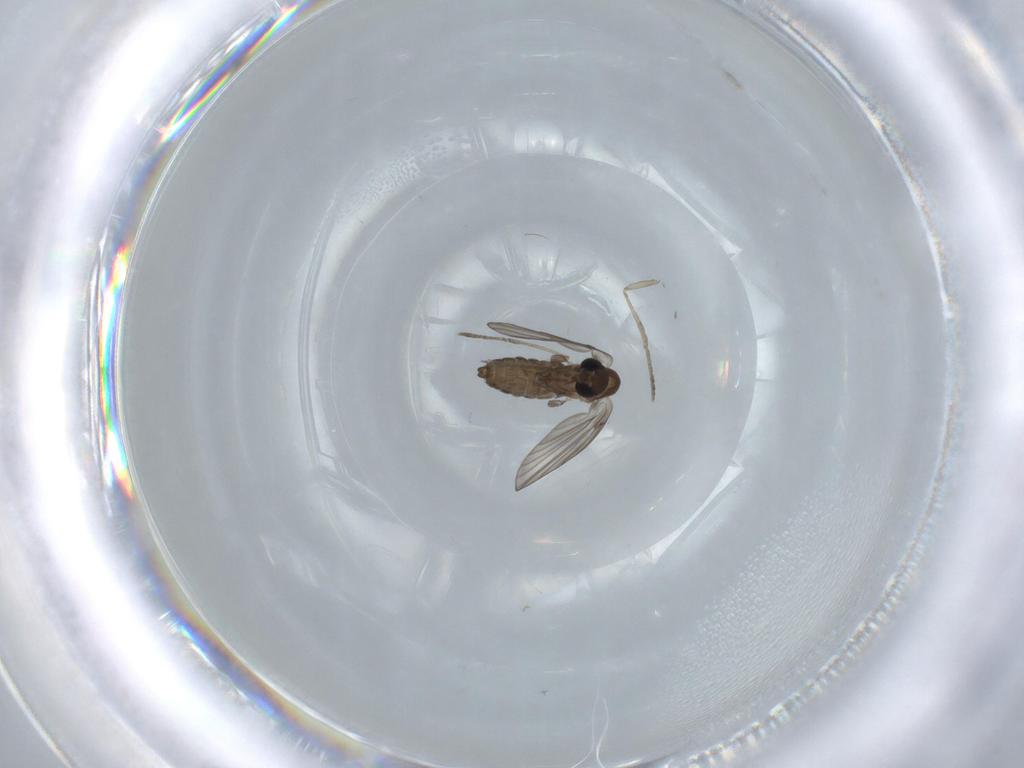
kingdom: Animalia
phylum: Arthropoda
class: Insecta
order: Diptera
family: Psychodidae
